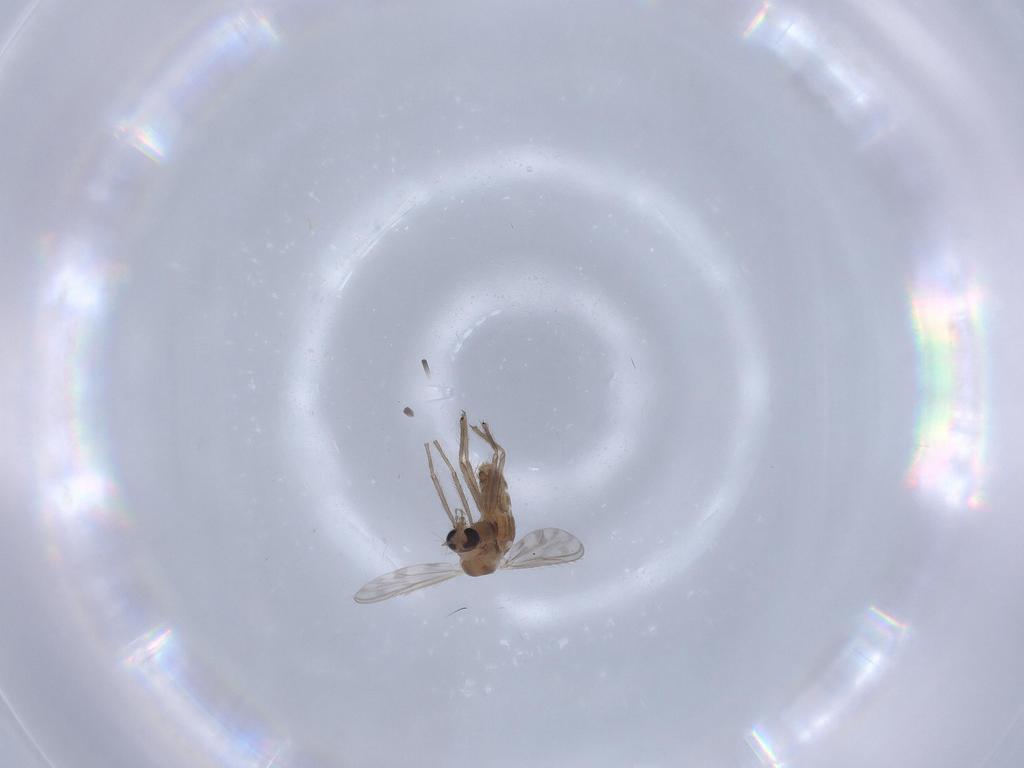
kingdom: Animalia
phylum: Arthropoda
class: Insecta
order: Diptera
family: Chironomidae
